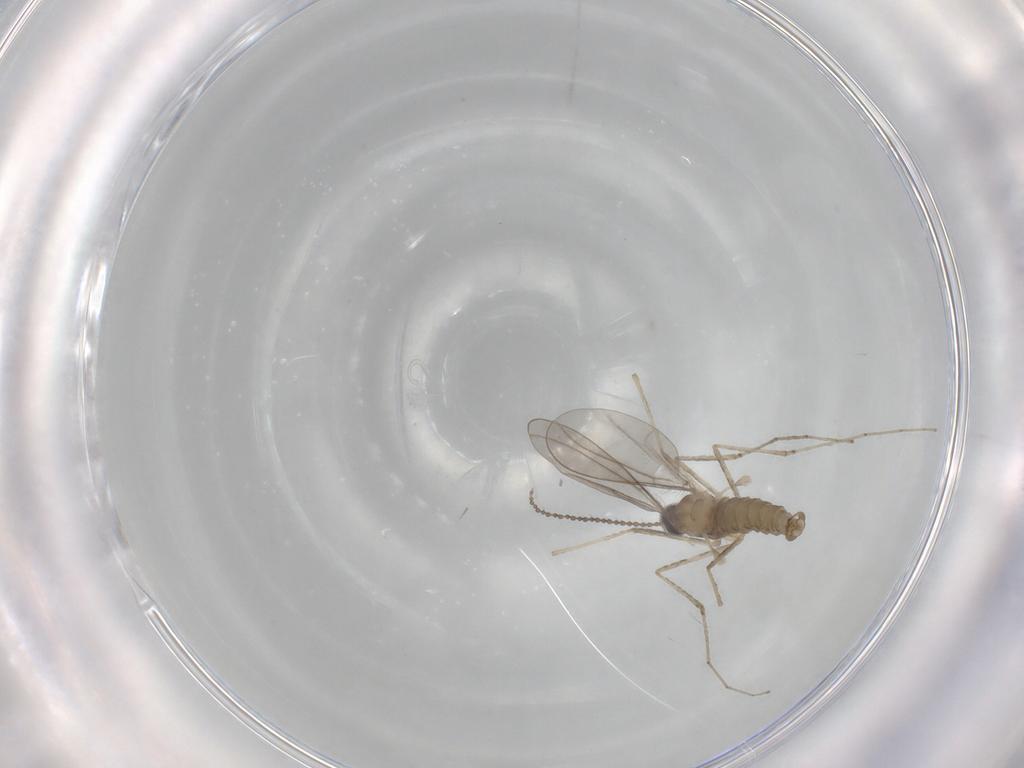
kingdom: Animalia
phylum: Arthropoda
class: Insecta
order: Diptera
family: Cecidomyiidae
